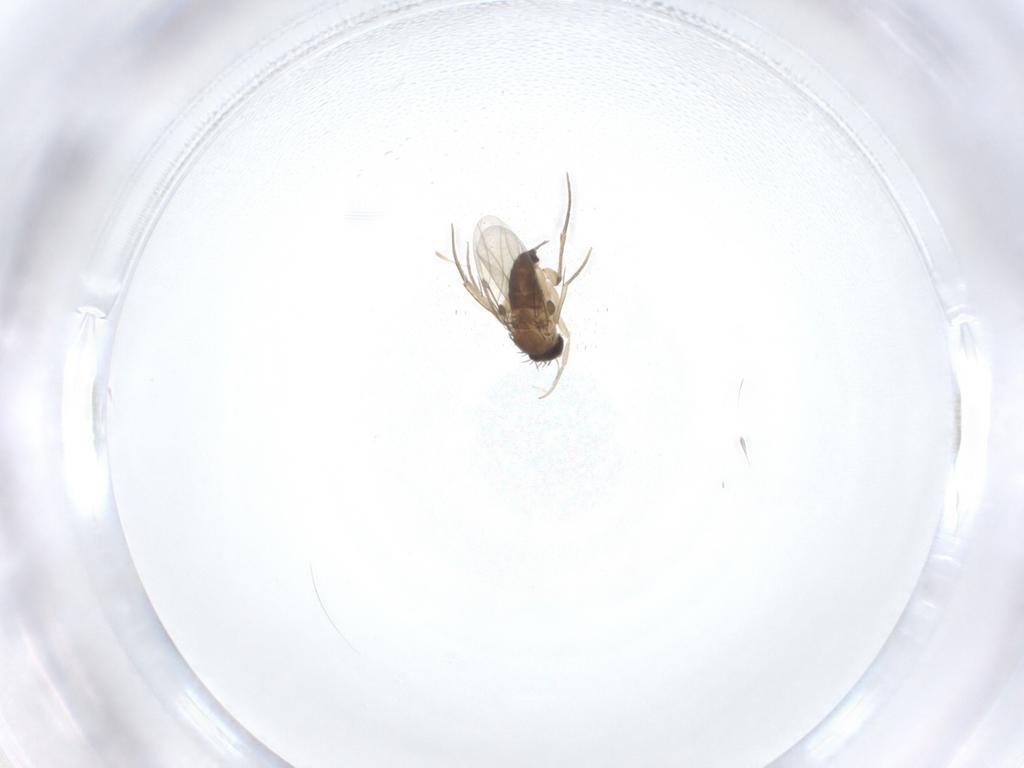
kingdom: Animalia
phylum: Arthropoda
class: Insecta
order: Diptera
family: Phoridae
